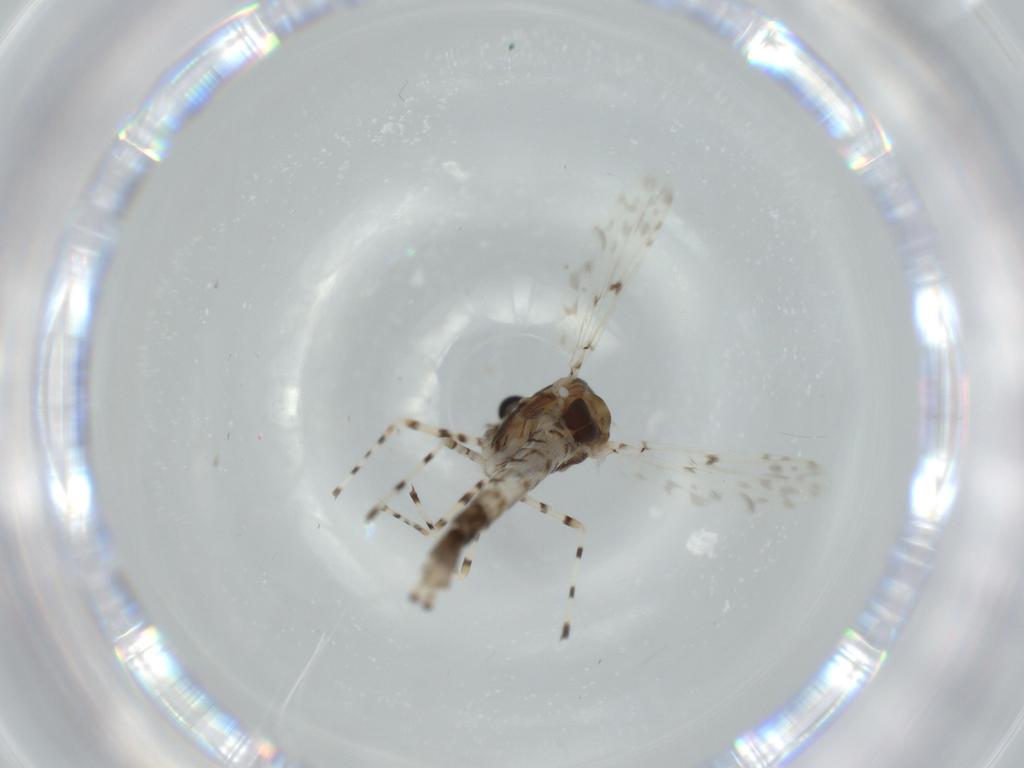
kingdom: Animalia
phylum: Arthropoda
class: Insecta
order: Diptera
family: Chironomidae
